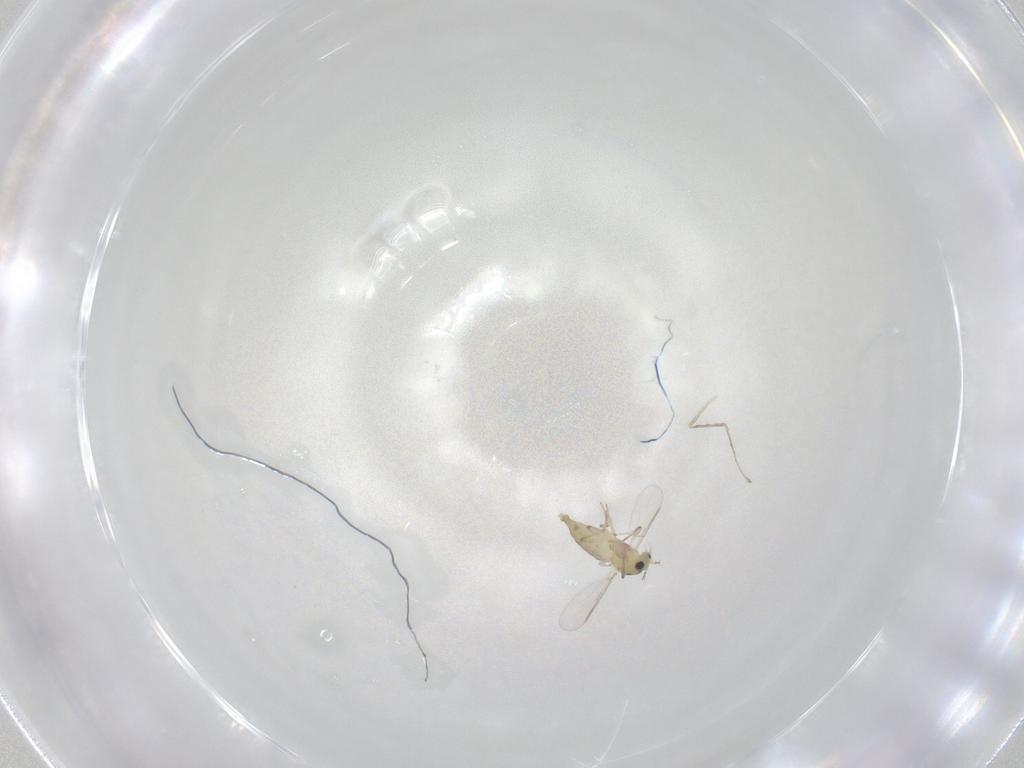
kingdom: Animalia
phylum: Arthropoda
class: Insecta
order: Diptera
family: Chironomidae
